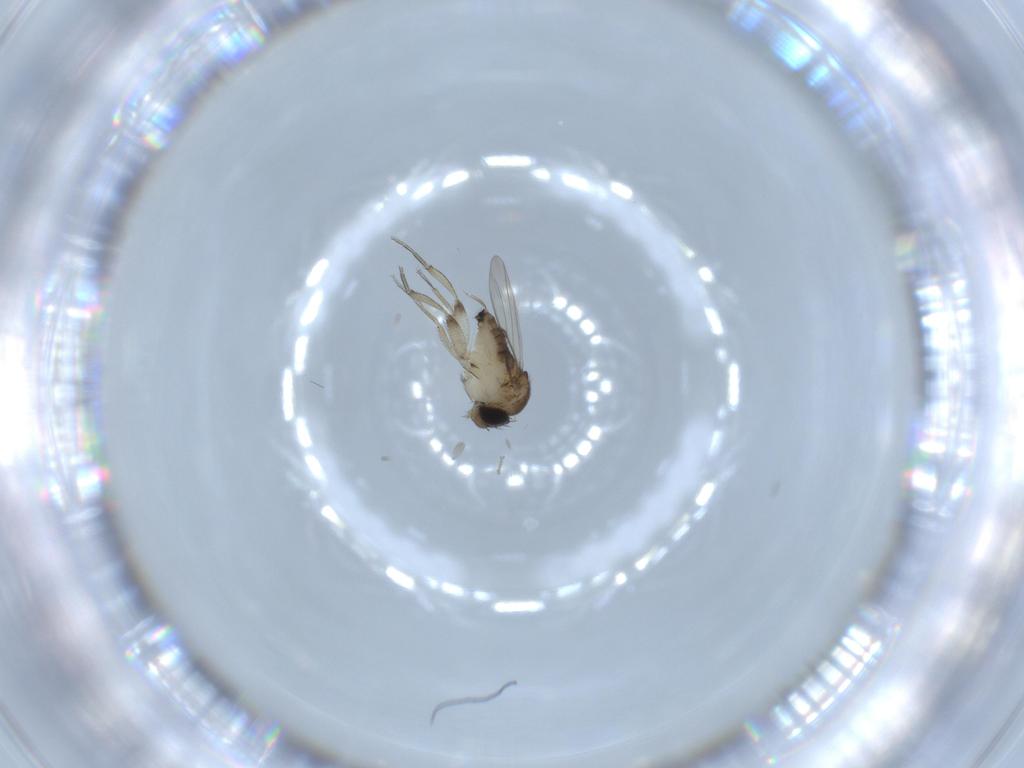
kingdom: Animalia
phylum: Arthropoda
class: Insecta
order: Diptera
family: Phoridae
